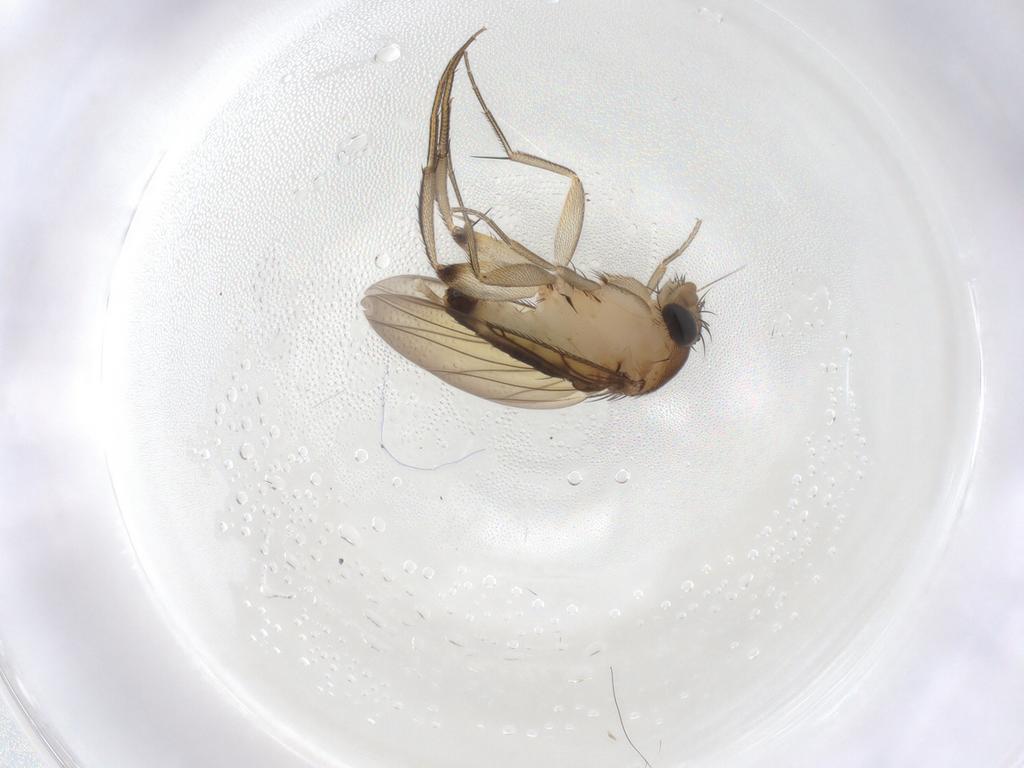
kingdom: Animalia
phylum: Arthropoda
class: Insecta
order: Diptera
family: Phoridae
